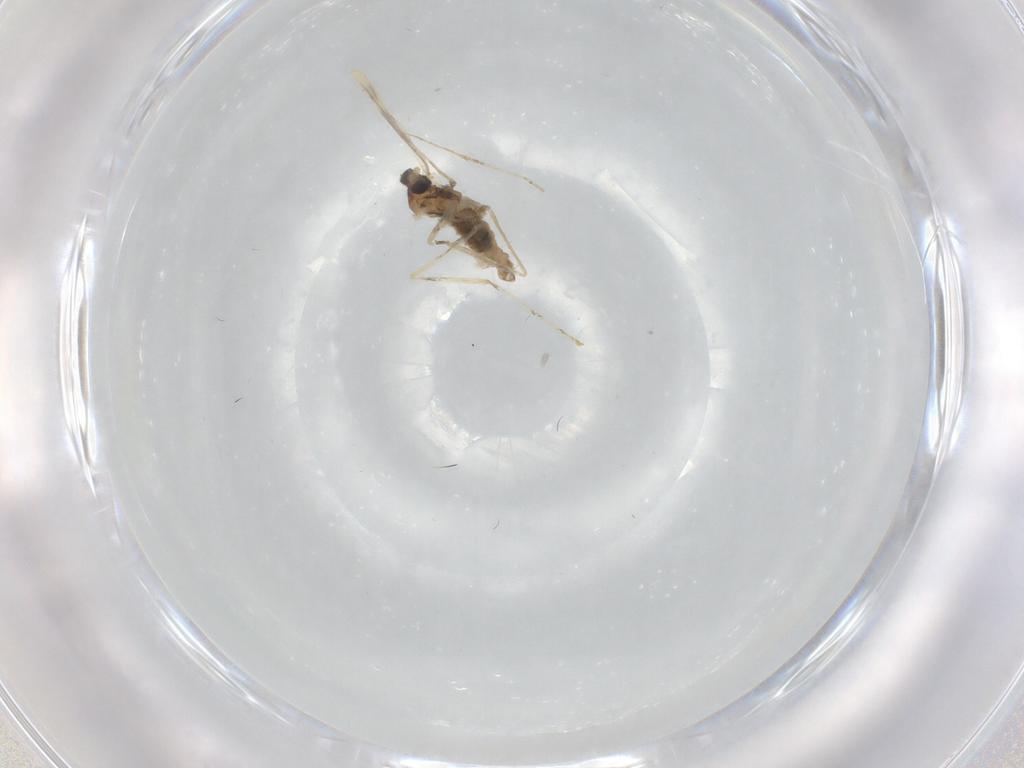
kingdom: Animalia
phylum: Arthropoda
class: Insecta
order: Diptera
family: Cecidomyiidae
